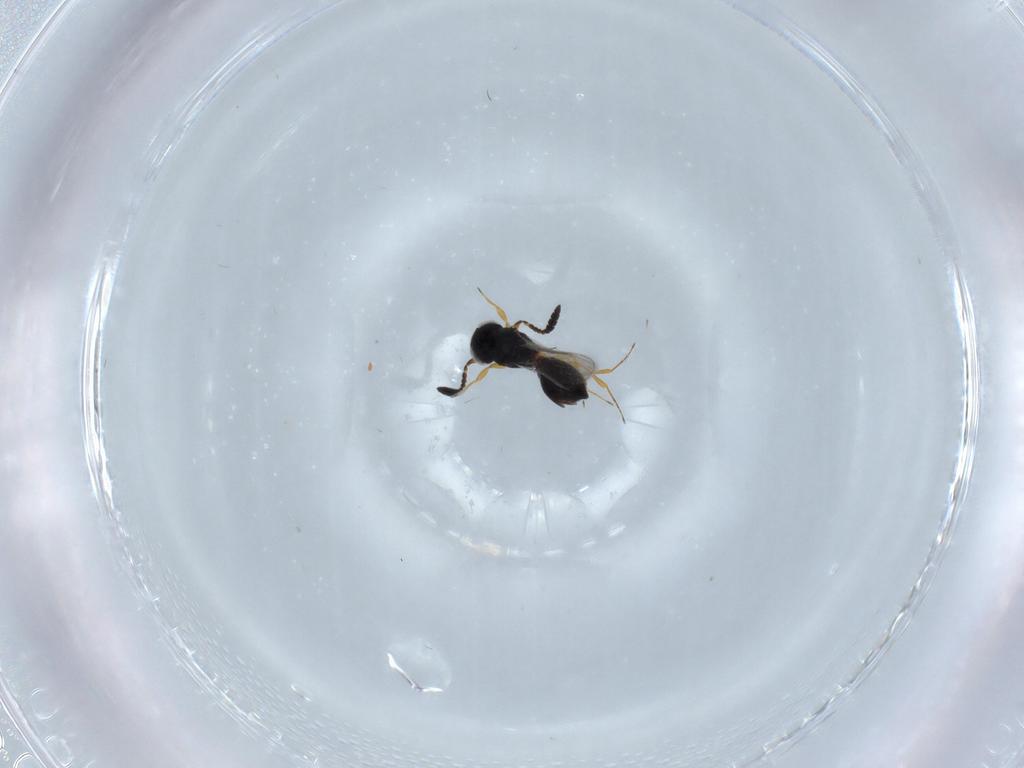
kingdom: Animalia
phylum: Arthropoda
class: Insecta
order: Hymenoptera
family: Scelionidae
